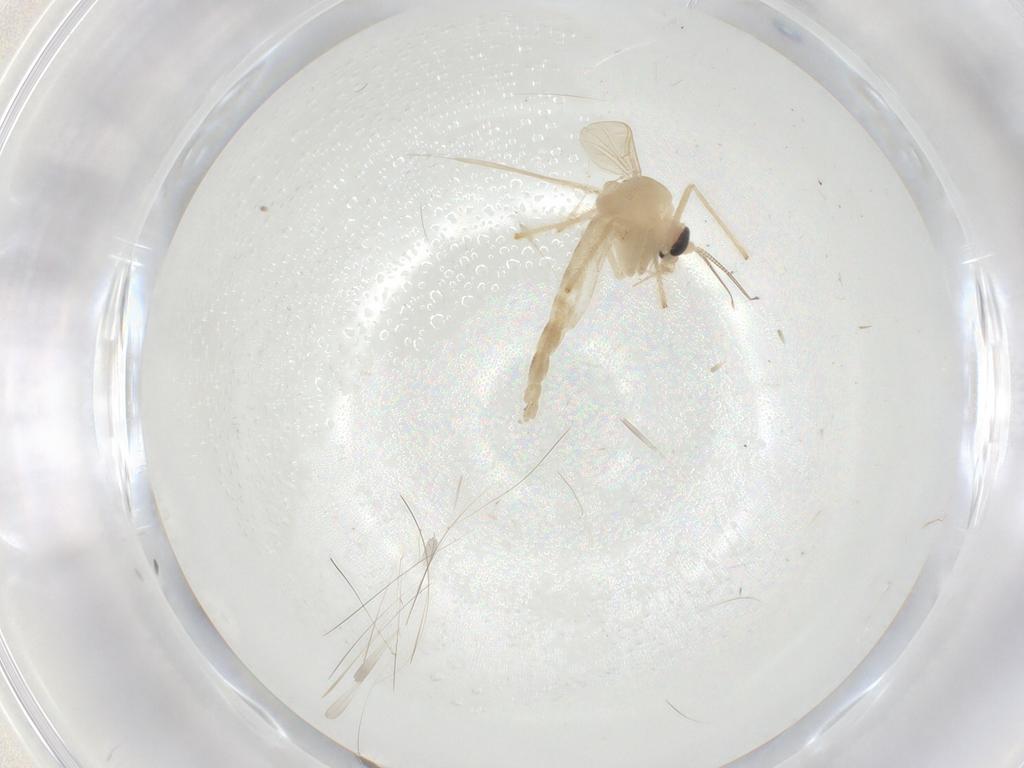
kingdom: Animalia
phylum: Arthropoda
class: Insecta
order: Diptera
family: Chironomidae
